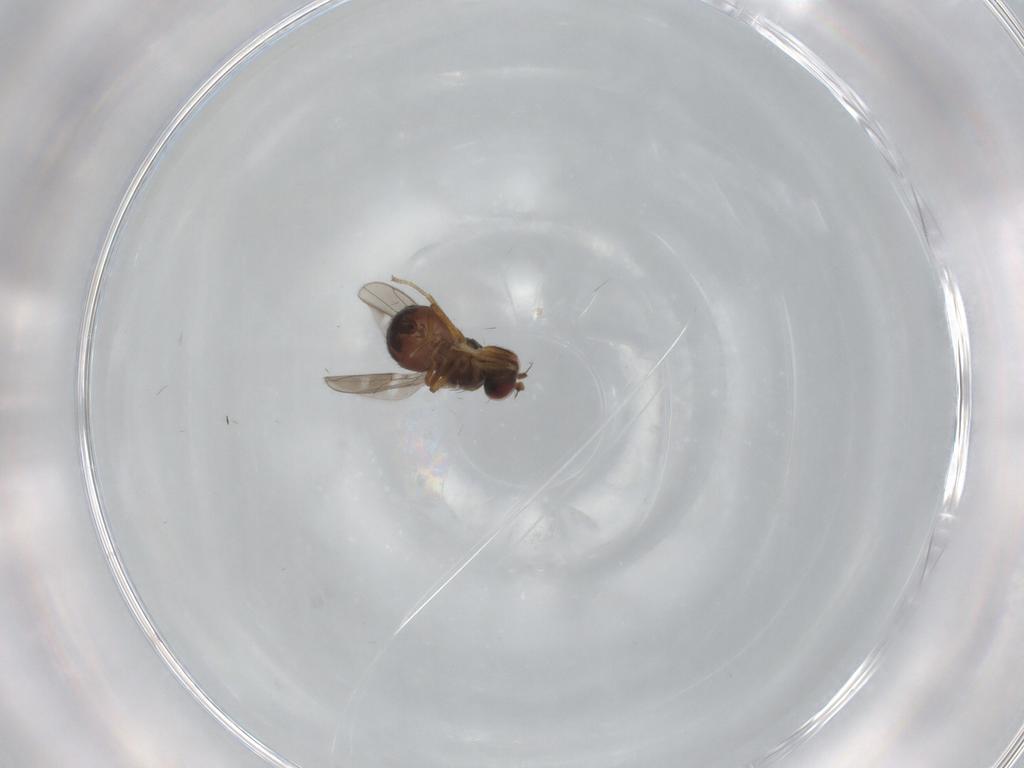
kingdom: Animalia
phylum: Arthropoda
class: Insecta
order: Diptera
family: Ephydridae
